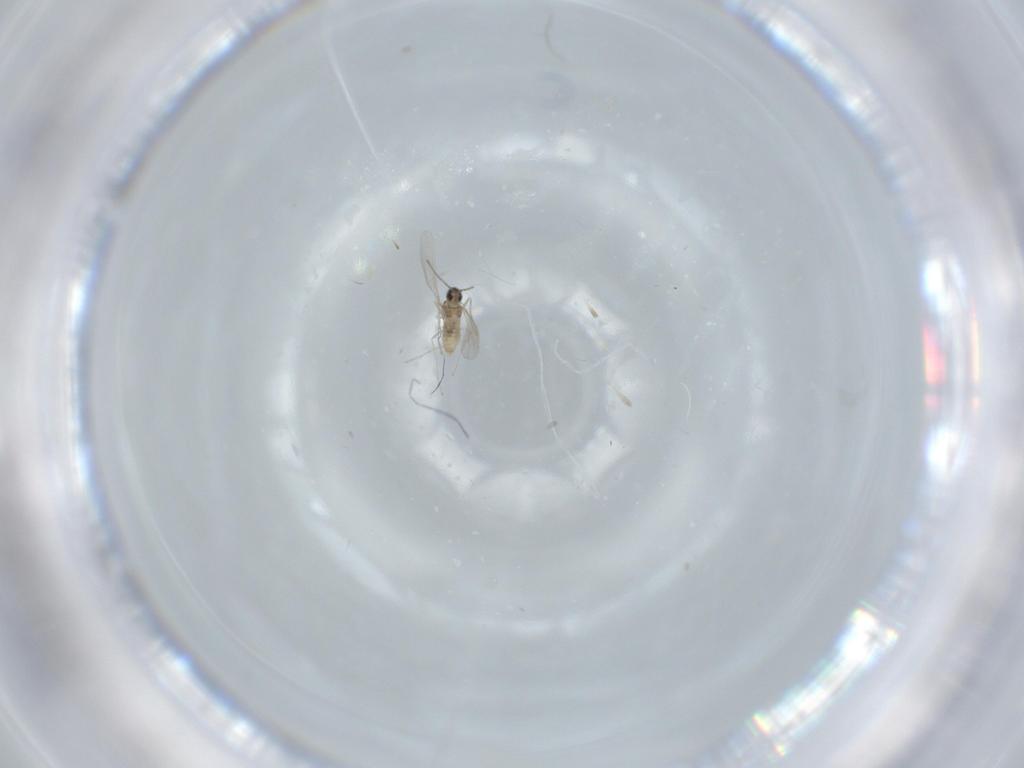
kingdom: Animalia
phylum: Arthropoda
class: Insecta
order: Diptera
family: Cecidomyiidae
